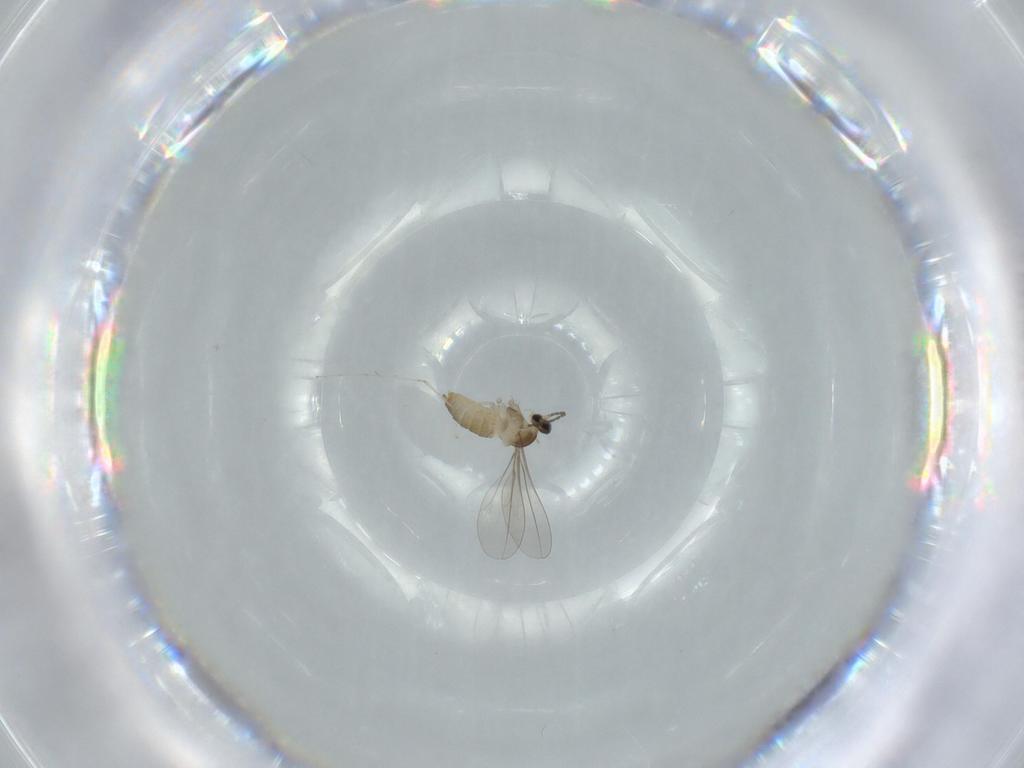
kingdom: Animalia
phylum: Arthropoda
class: Insecta
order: Diptera
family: Cecidomyiidae
